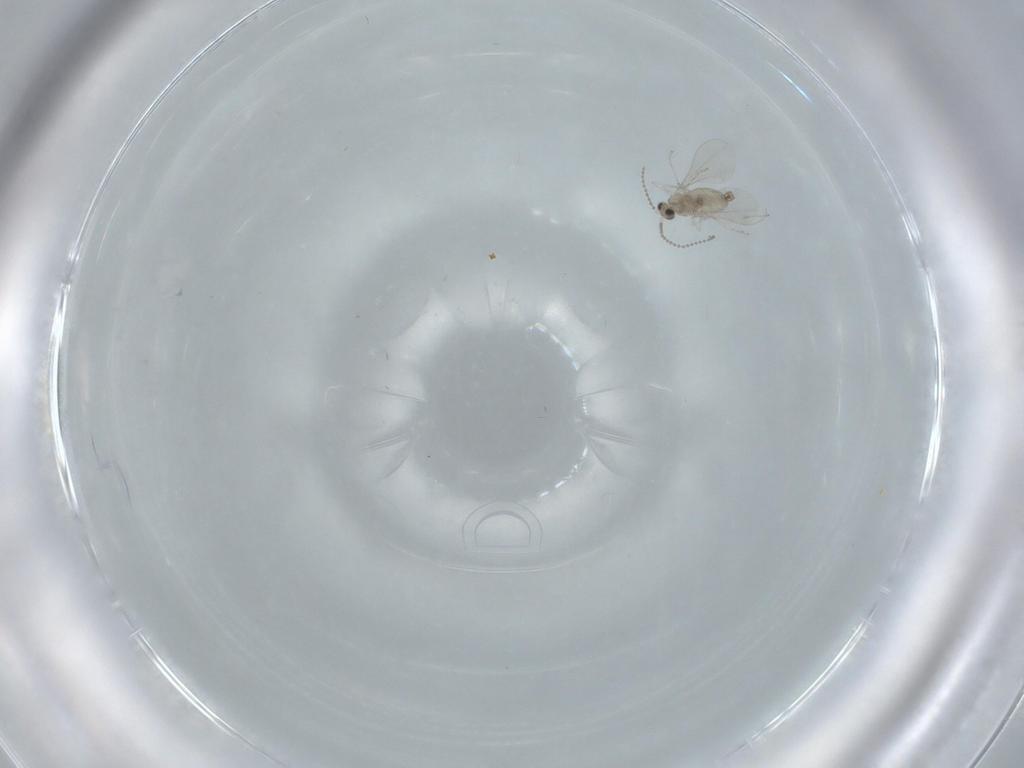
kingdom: Animalia
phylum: Arthropoda
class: Insecta
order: Diptera
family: Cecidomyiidae
